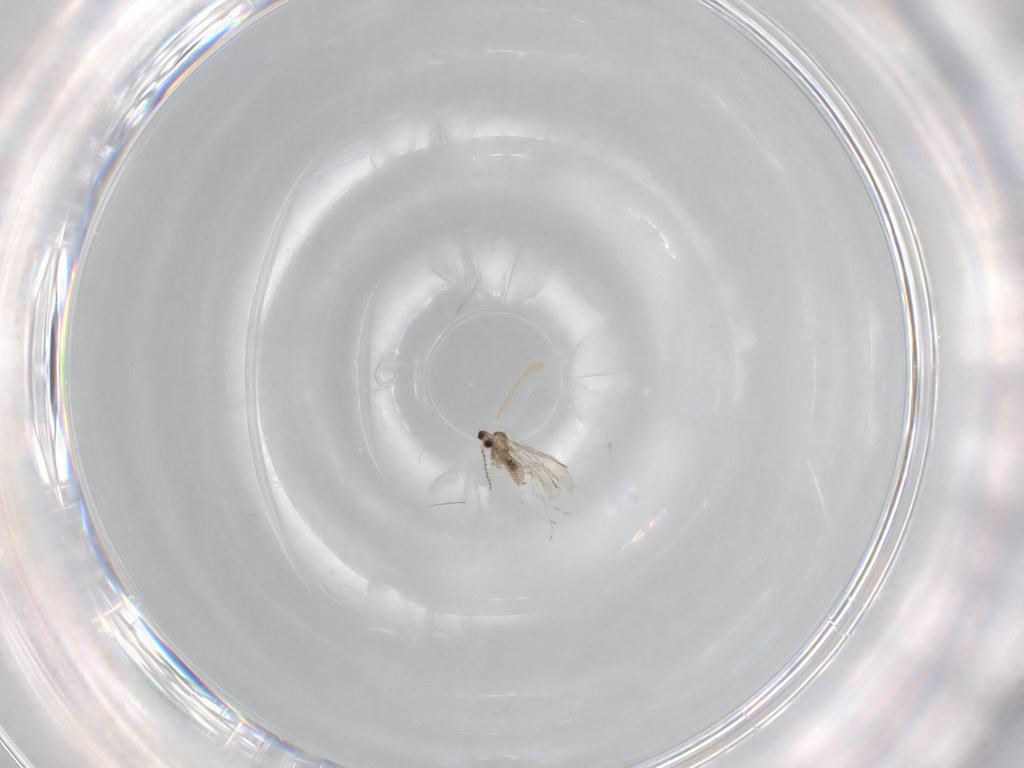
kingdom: Animalia
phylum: Arthropoda
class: Insecta
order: Diptera
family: Cecidomyiidae
